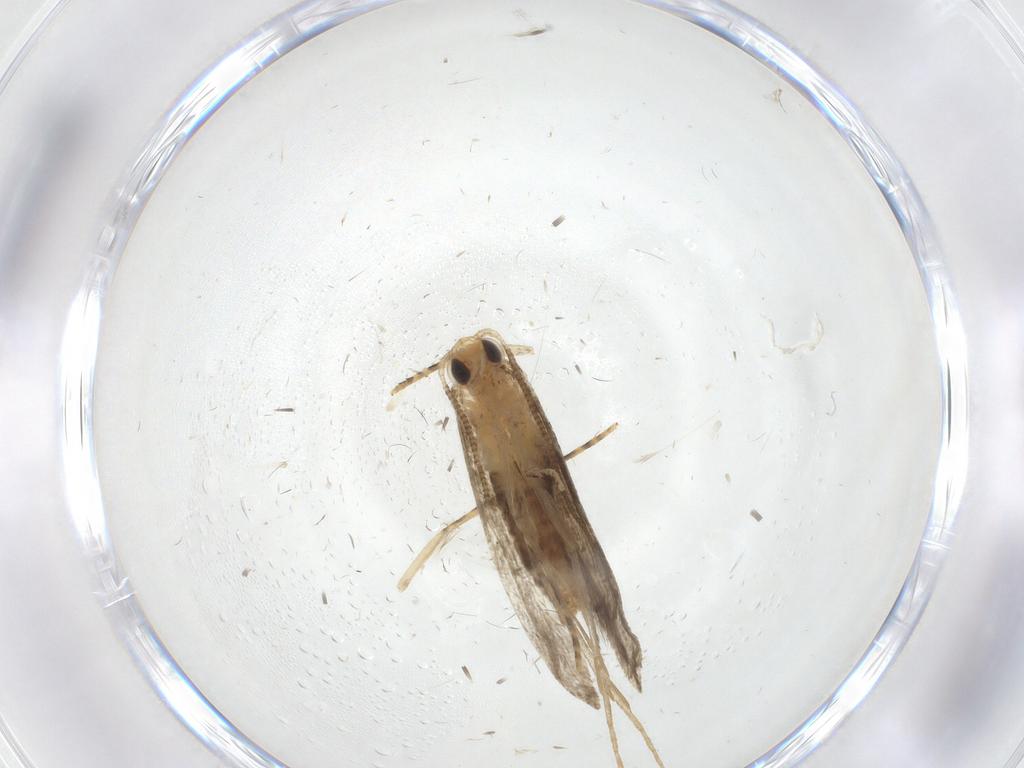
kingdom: Animalia
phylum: Arthropoda
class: Insecta
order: Lepidoptera
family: Tineidae
